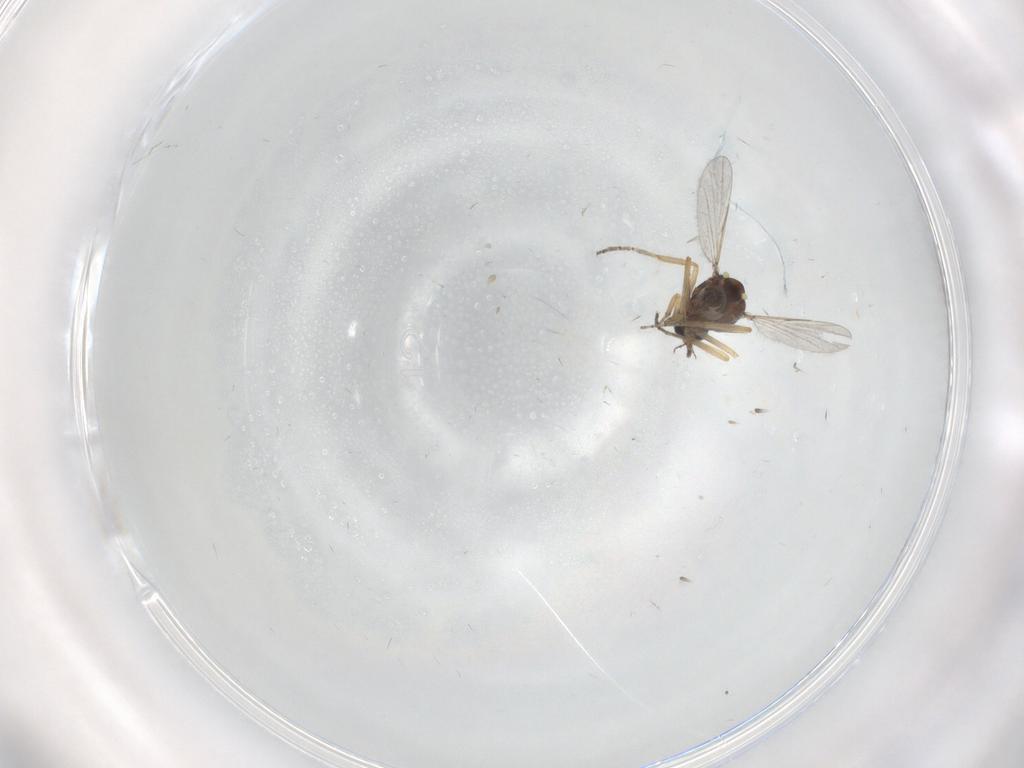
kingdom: Animalia
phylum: Arthropoda
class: Insecta
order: Diptera
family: Ceratopogonidae
